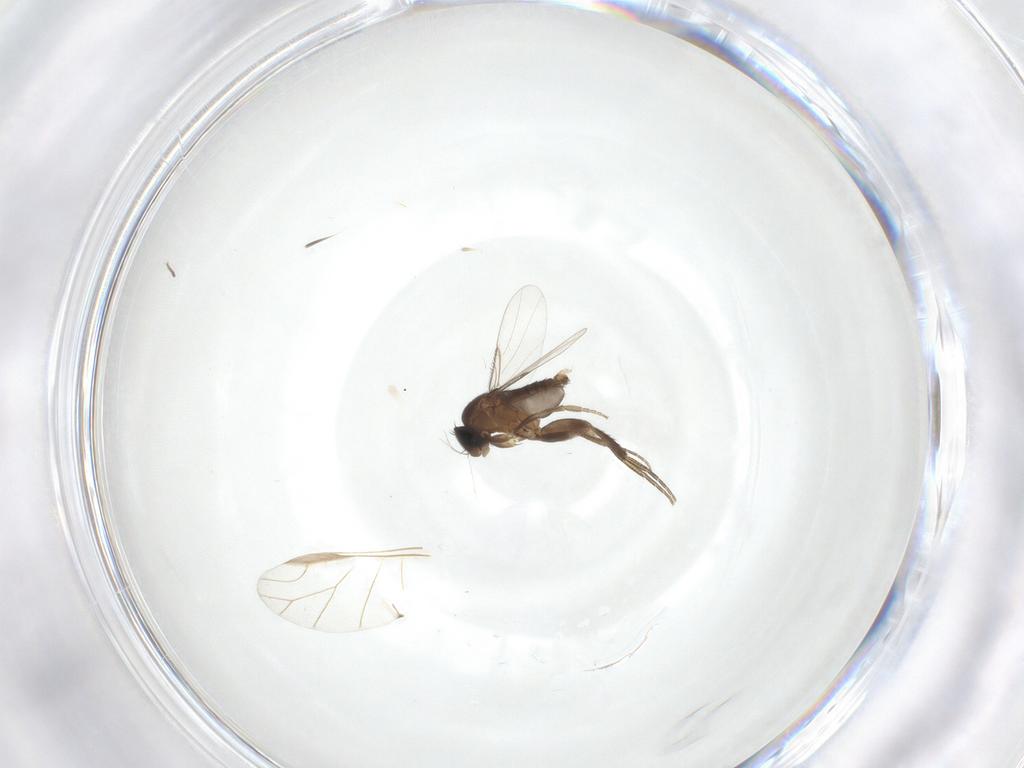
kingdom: Animalia
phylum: Arthropoda
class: Insecta
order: Diptera
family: Phoridae
